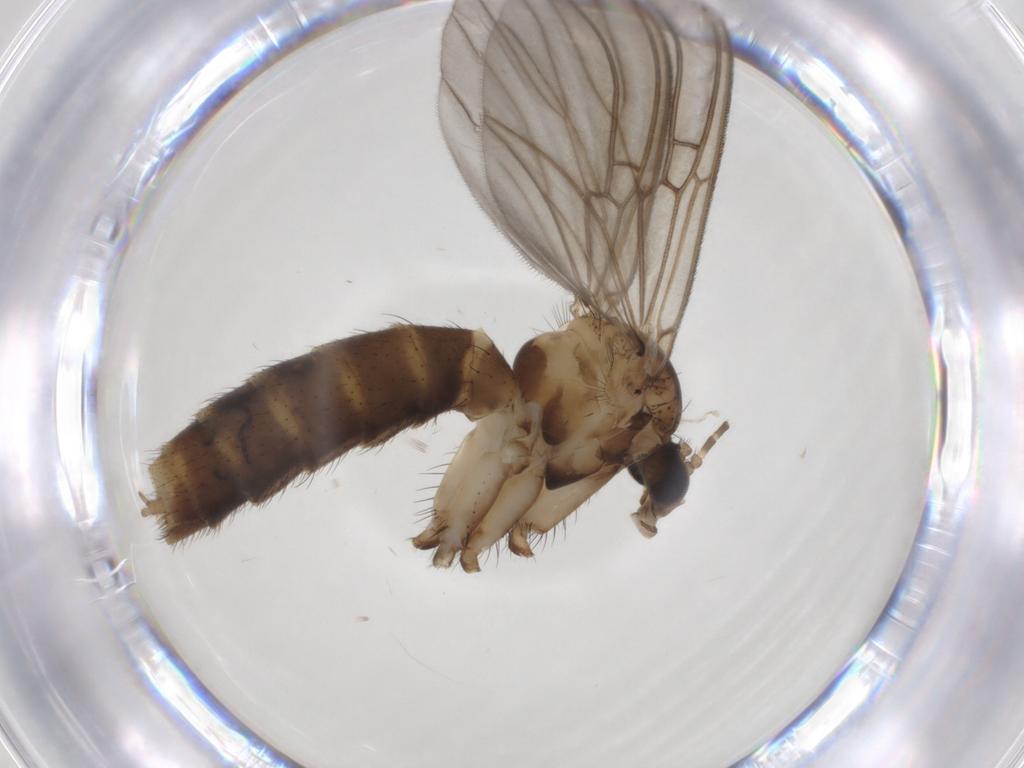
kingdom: Animalia
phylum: Arthropoda
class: Insecta
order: Diptera
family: Mycetophilidae
